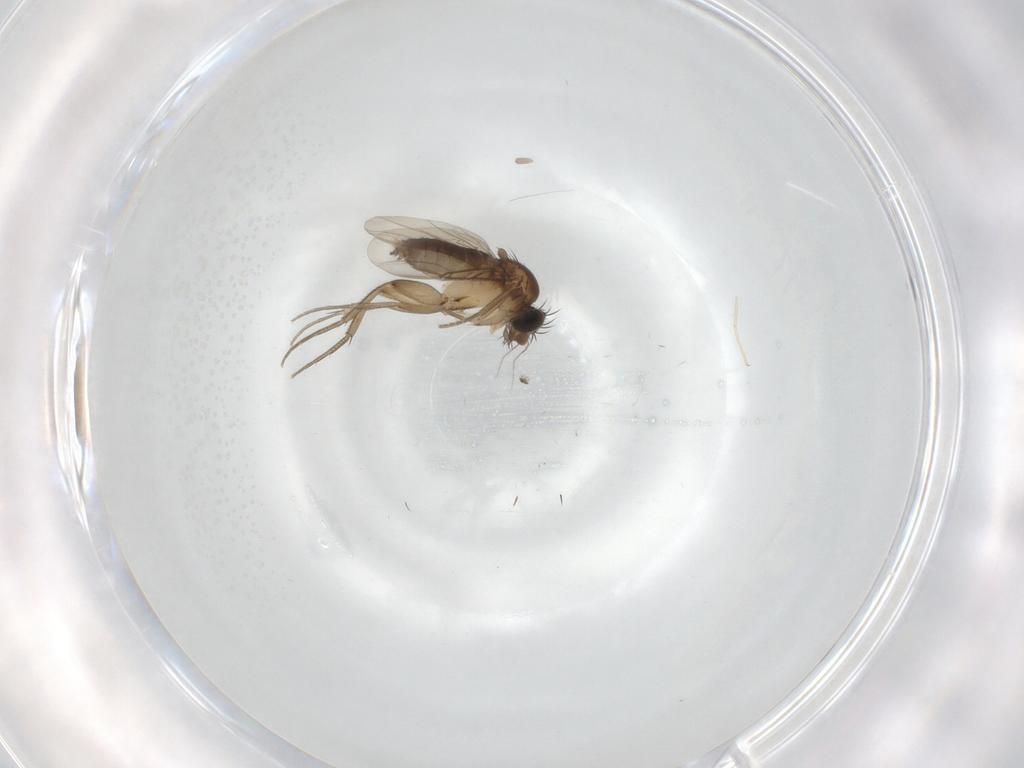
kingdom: Animalia
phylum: Arthropoda
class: Insecta
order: Diptera
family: Phoridae
